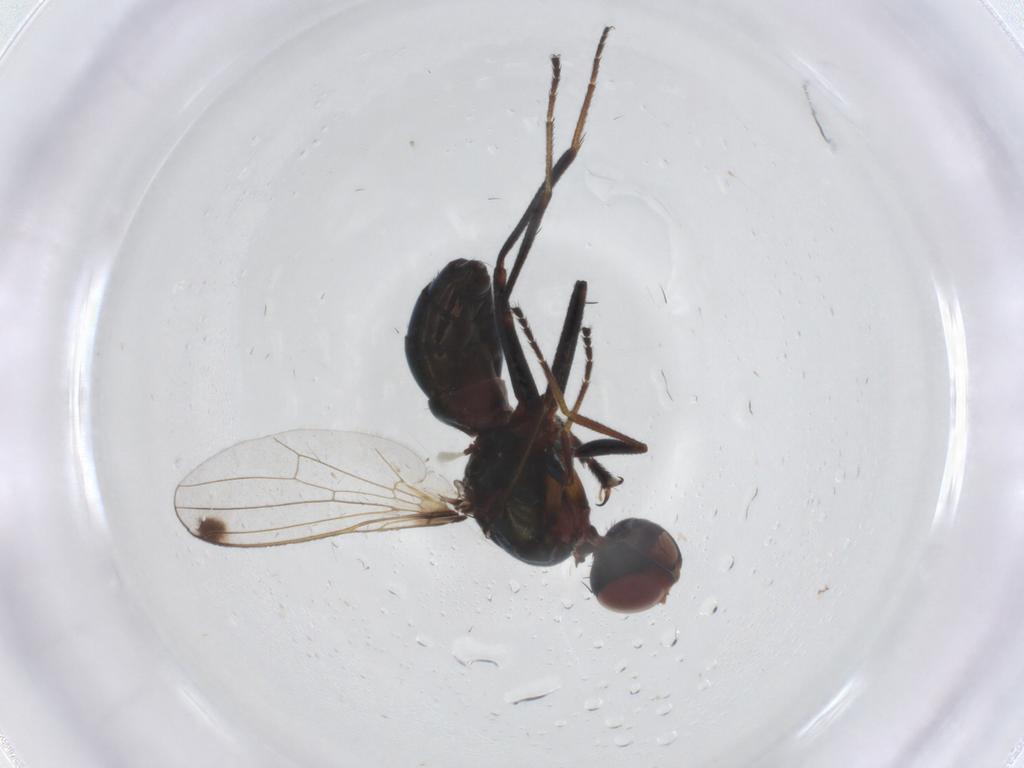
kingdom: Animalia
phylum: Arthropoda
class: Insecta
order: Diptera
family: Sepsidae
